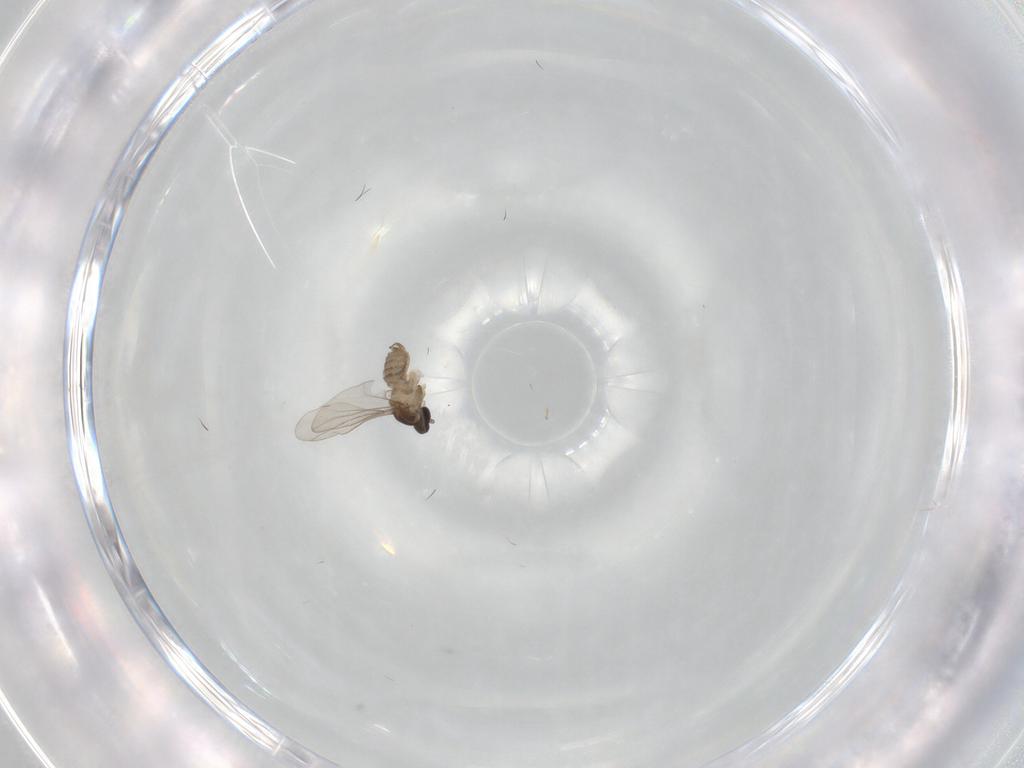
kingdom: Animalia
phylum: Arthropoda
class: Insecta
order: Diptera
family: Cecidomyiidae
